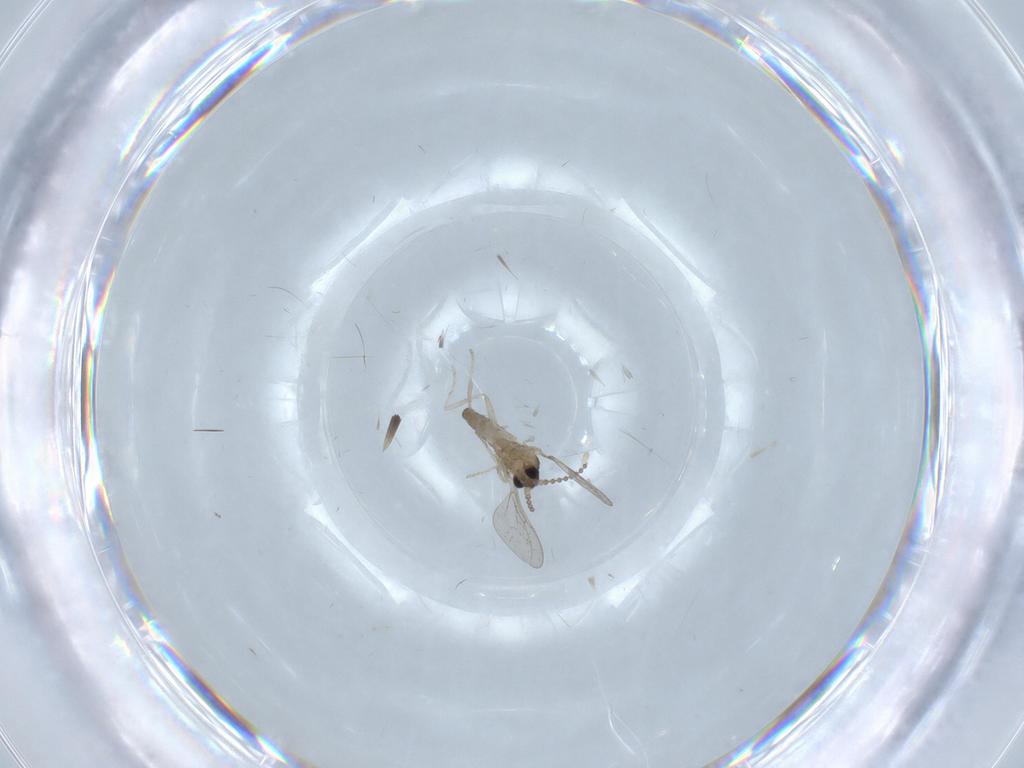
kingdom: Animalia
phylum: Arthropoda
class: Insecta
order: Diptera
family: Cecidomyiidae
